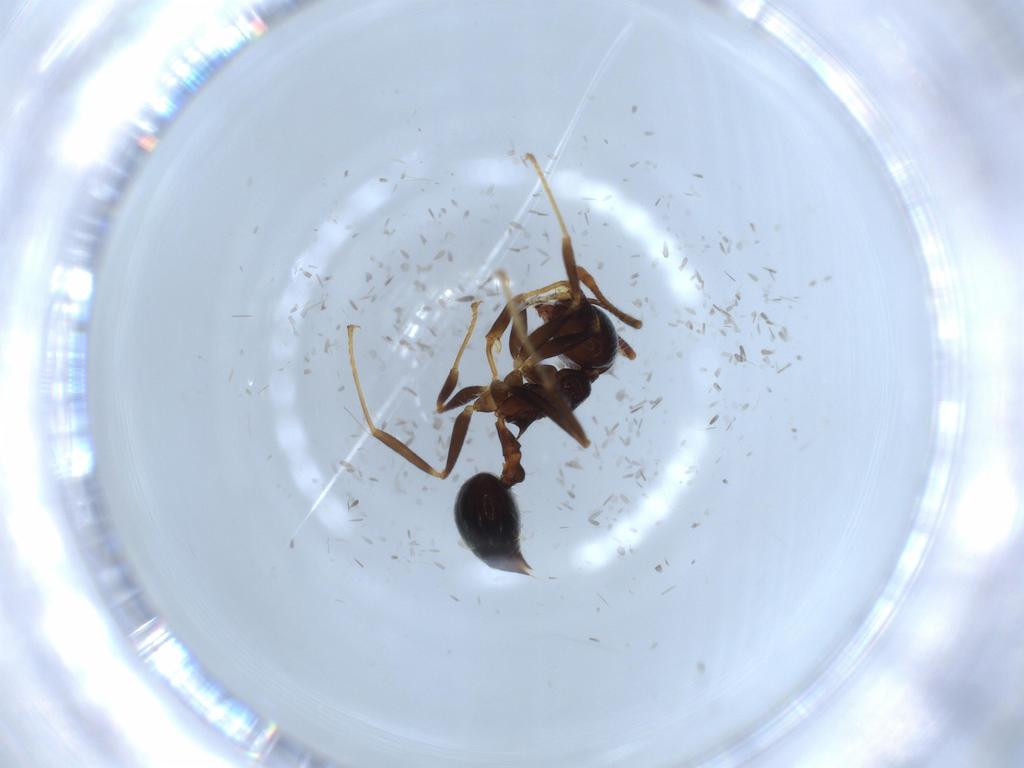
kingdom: Animalia
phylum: Arthropoda
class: Insecta
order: Hymenoptera
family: Formicidae
